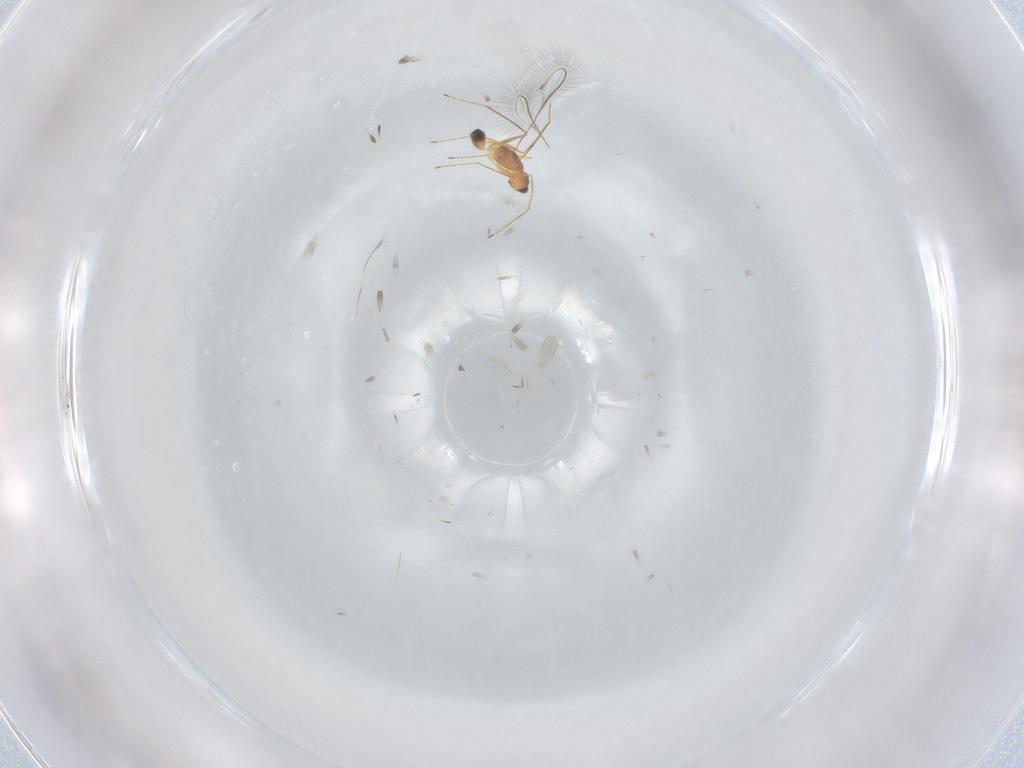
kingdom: Animalia
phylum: Arthropoda
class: Insecta
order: Hymenoptera
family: Mymaridae
